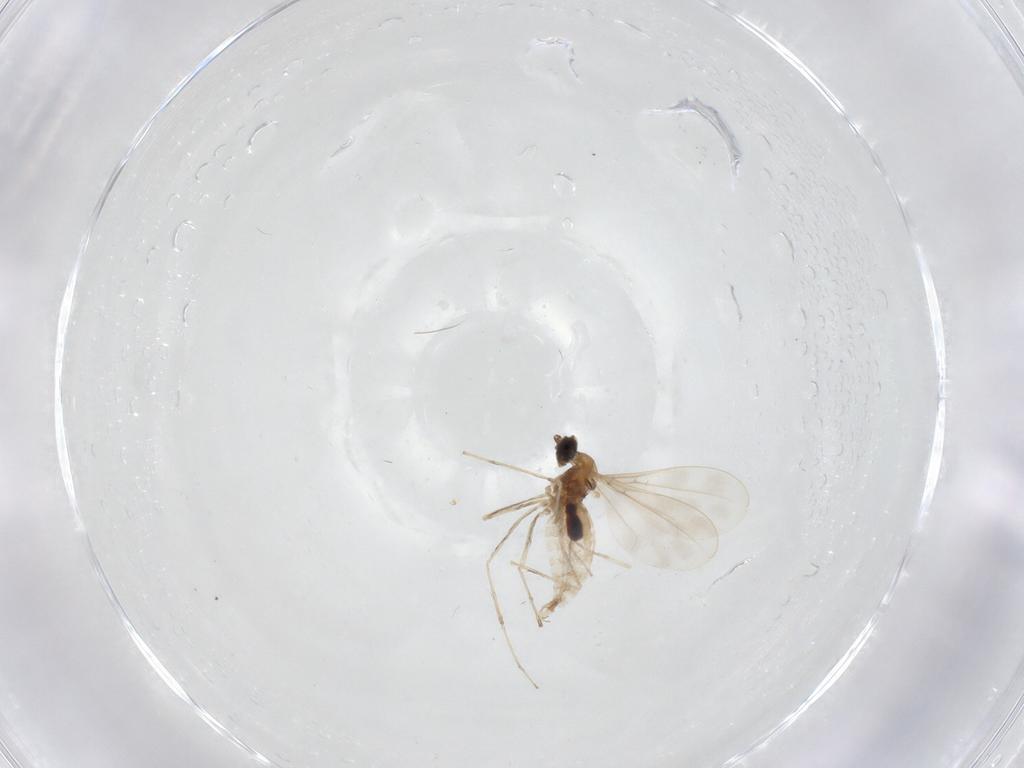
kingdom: Animalia
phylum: Arthropoda
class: Insecta
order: Diptera
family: Cecidomyiidae
